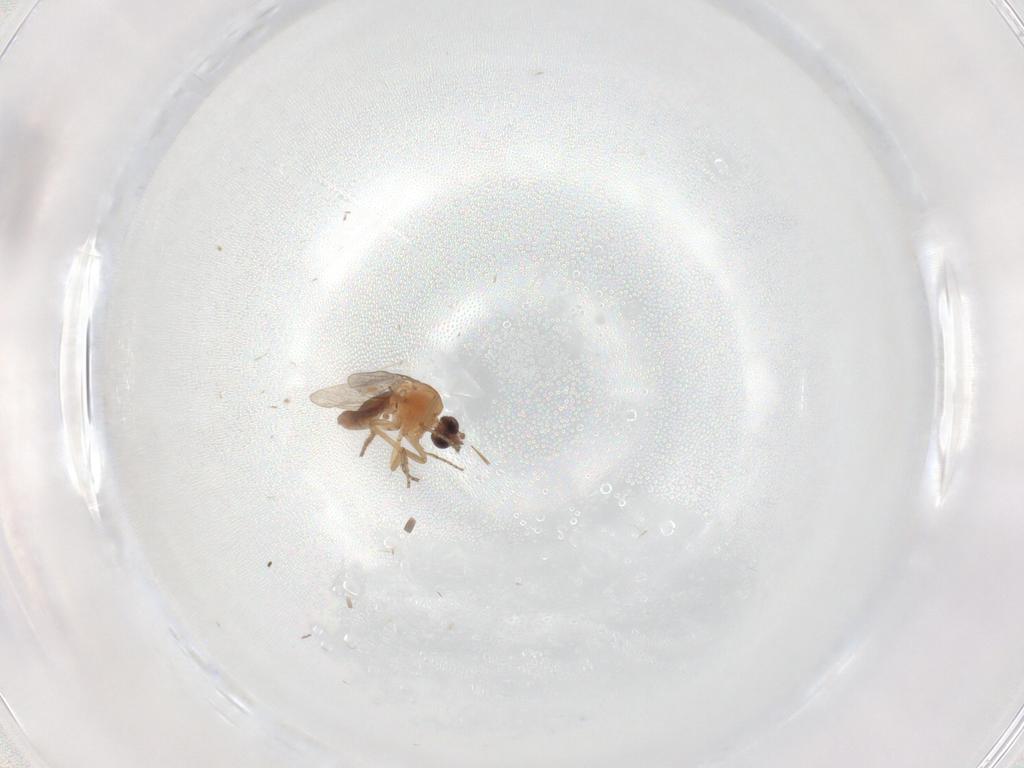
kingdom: Animalia
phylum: Arthropoda
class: Insecta
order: Diptera
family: Ceratopogonidae
